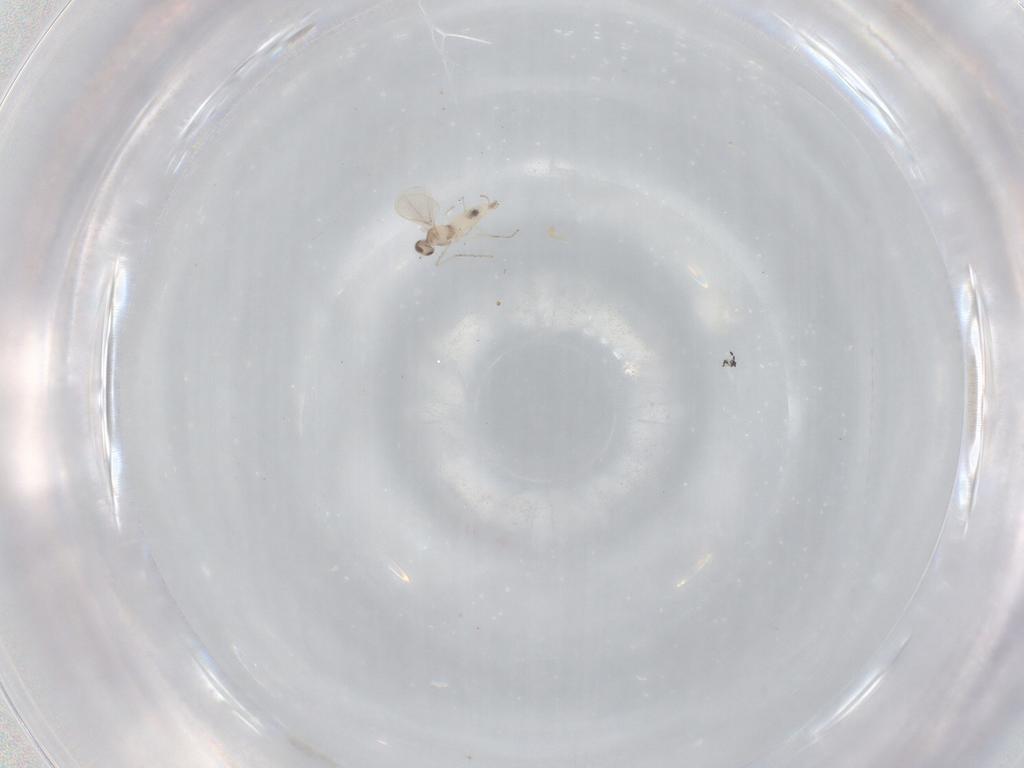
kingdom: Animalia
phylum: Arthropoda
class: Insecta
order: Diptera
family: Cecidomyiidae
